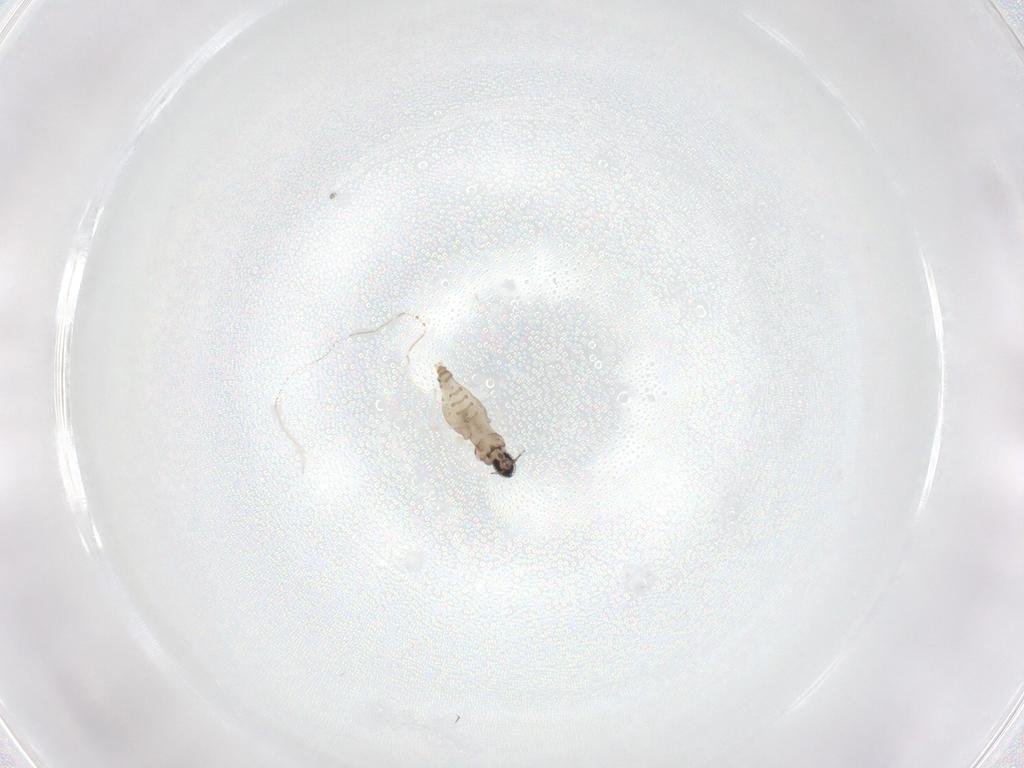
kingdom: Animalia
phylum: Arthropoda
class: Insecta
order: Diptera
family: Cecidomyiidae
